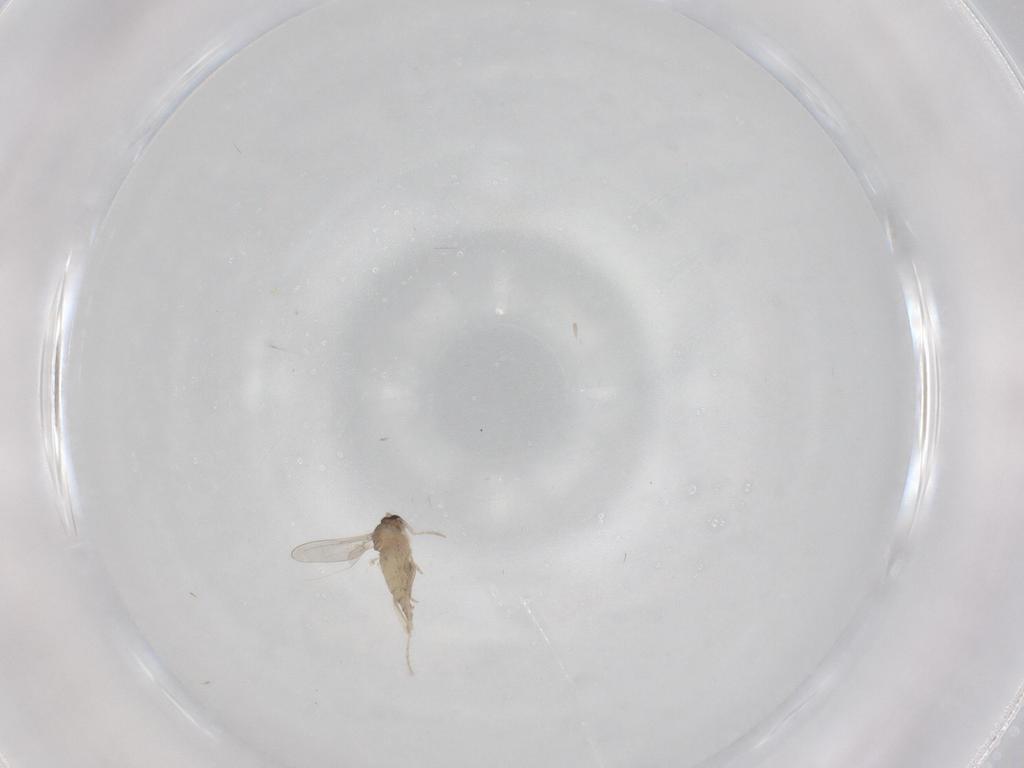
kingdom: Animalia
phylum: Arthropoda
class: Insecta
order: Diptera
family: Cecidomyiidae
